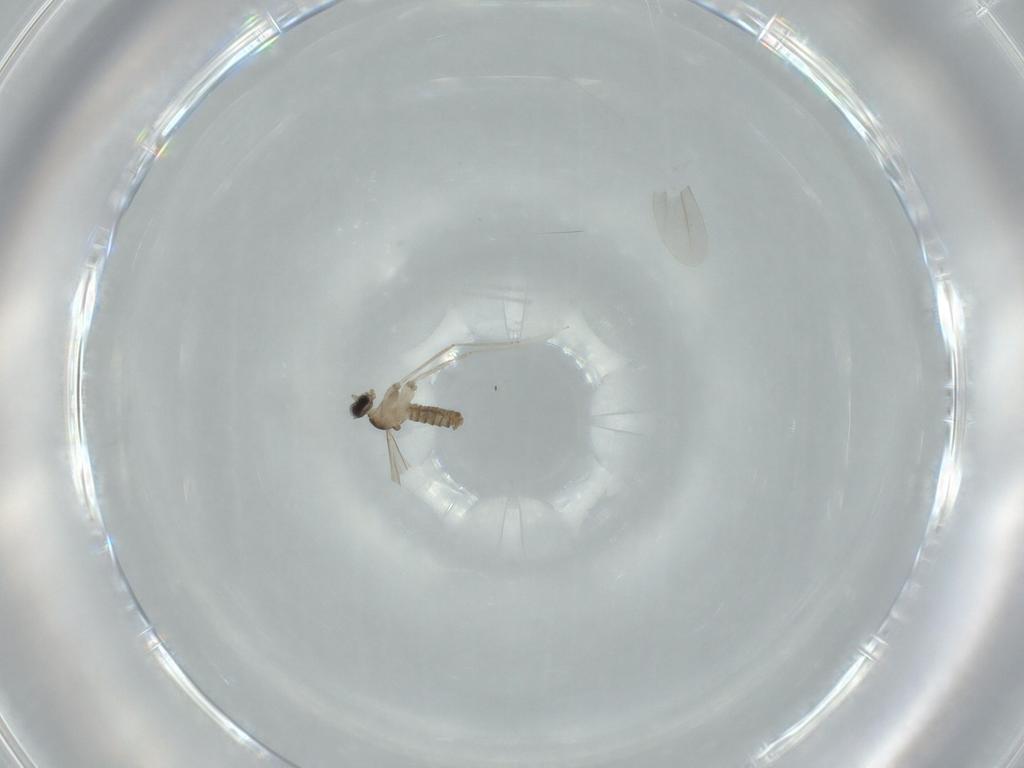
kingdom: Animalia
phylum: Arthropoda
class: Insecta
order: Diptera
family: Cecidomyiidae
